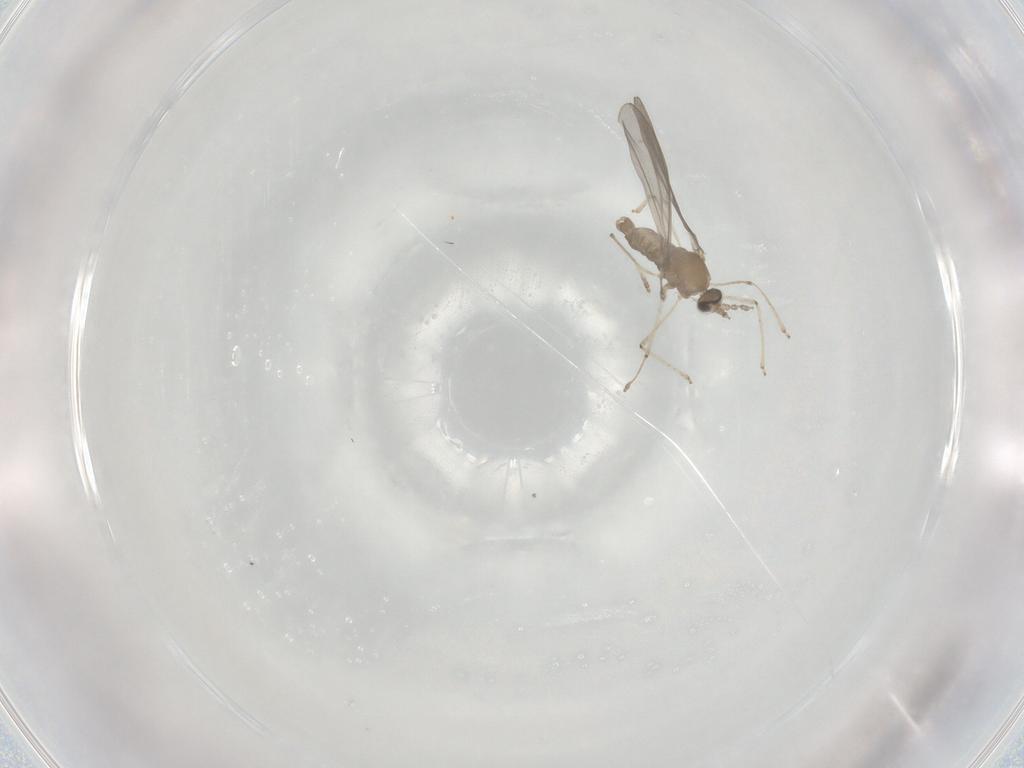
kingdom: Animalia
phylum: Arthropoda
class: Insecta
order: Diptera
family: Cecidomyiidae
